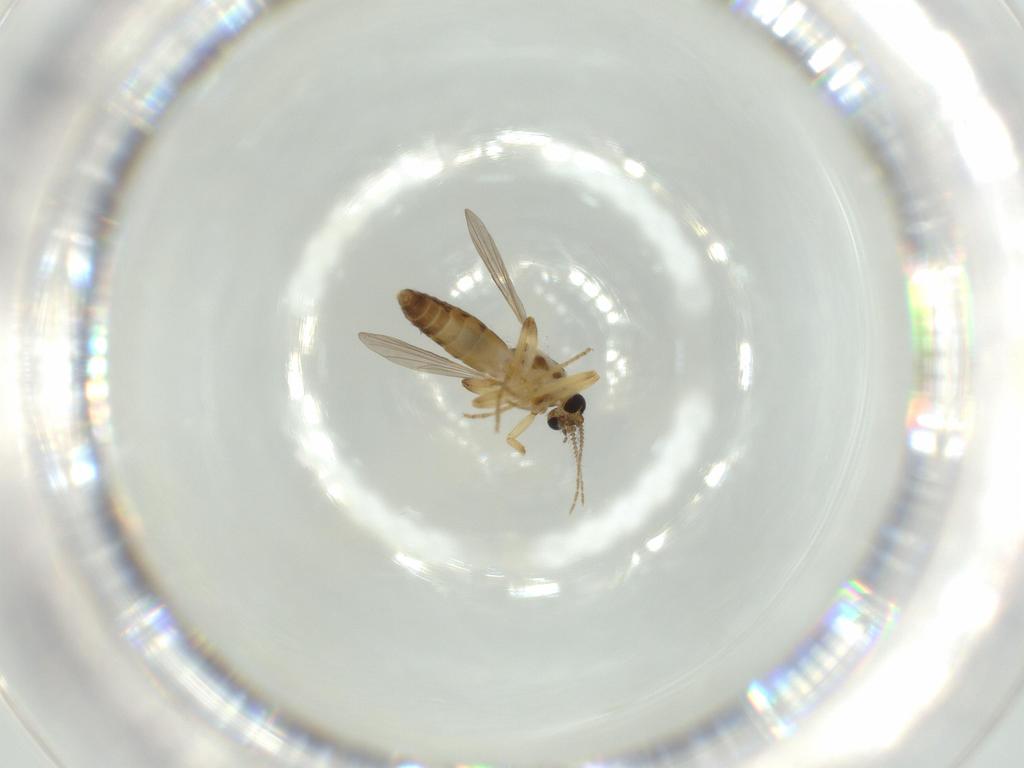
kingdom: Animalia
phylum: Arthropoda
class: Insecta
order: Diptera
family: Ceratopogonidae
